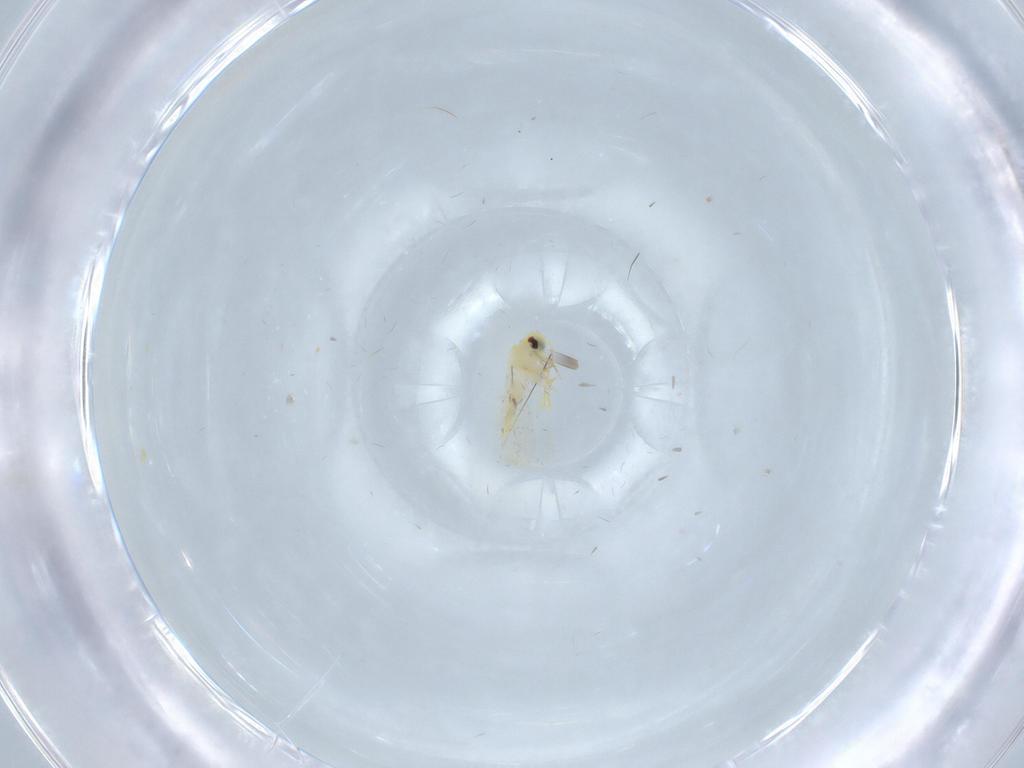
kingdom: Animalia
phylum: Arthropoda
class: Insecta
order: Hemiptera
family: Aleyrodidae
